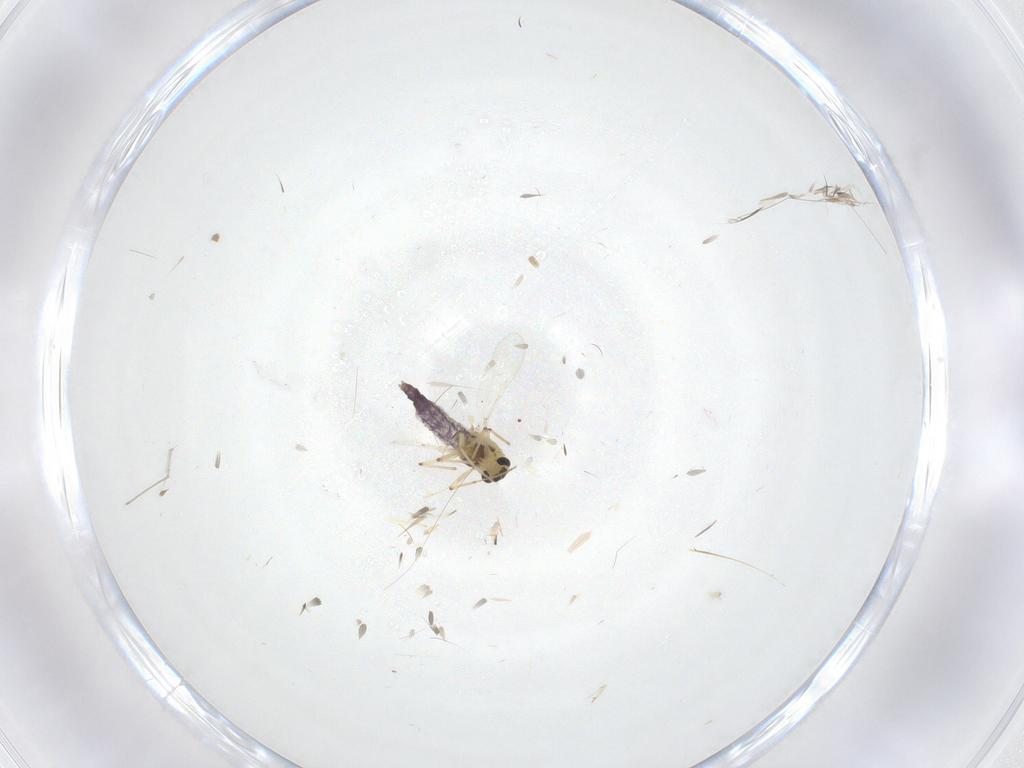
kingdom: Animalia
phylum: Arthropoda
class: Insecta
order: Diptera
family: Chironomidae
